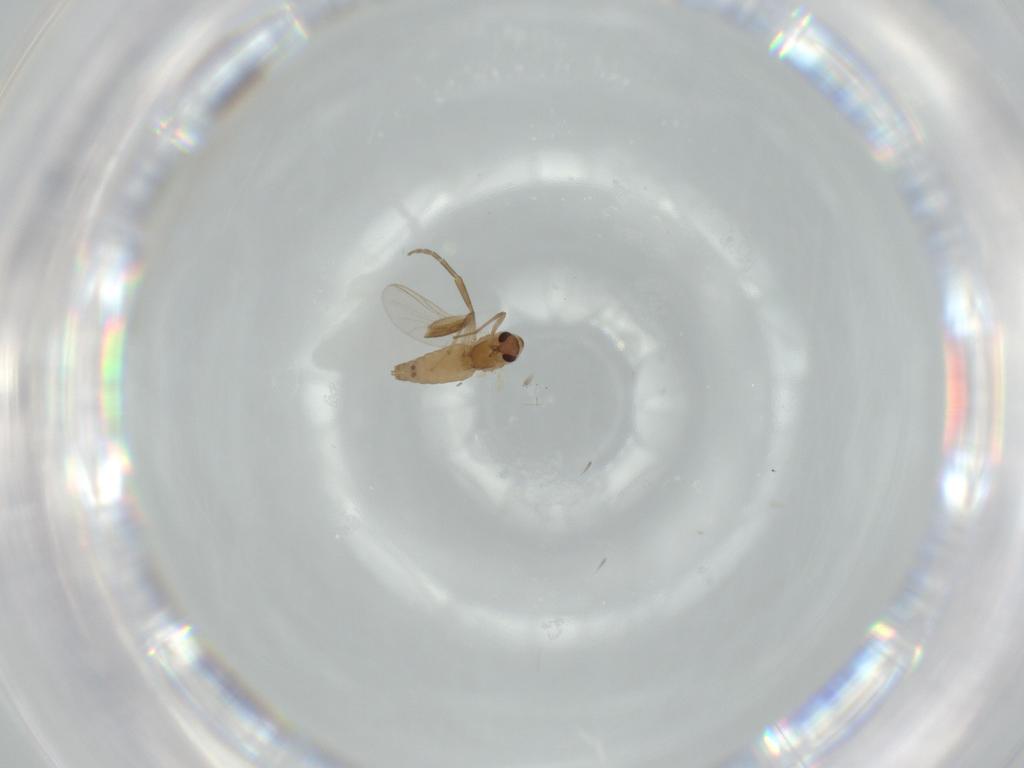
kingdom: Animalia
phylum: Arthropoda
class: Insecta
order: Diptera
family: Chironomidae
